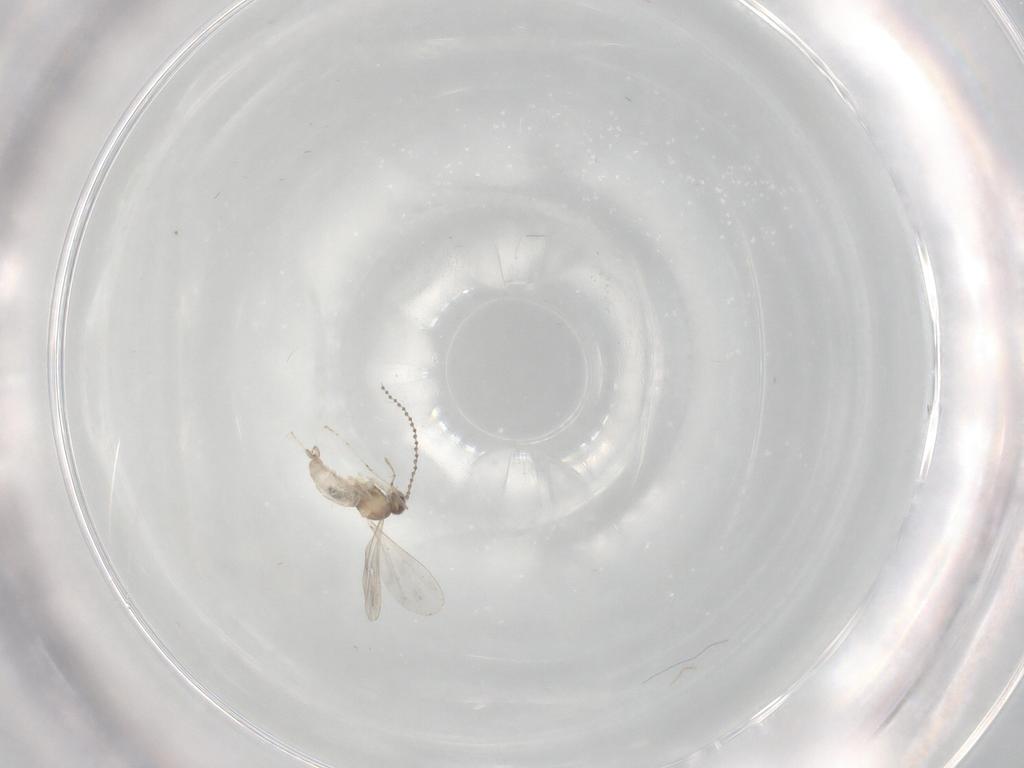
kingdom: Animalia
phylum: Arthropoda
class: Insecta
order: Diptera
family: Cecidomyiidae
